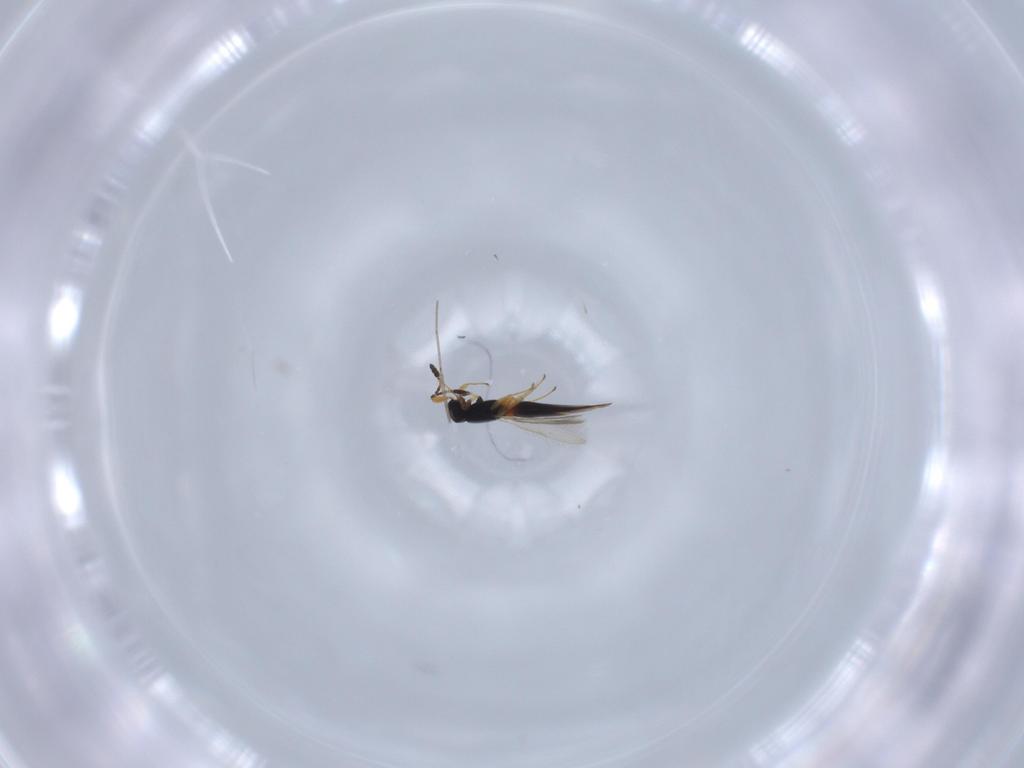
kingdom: Animalia
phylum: Arthropoda
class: Insecta
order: Hymenoptera
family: Scelionidae
